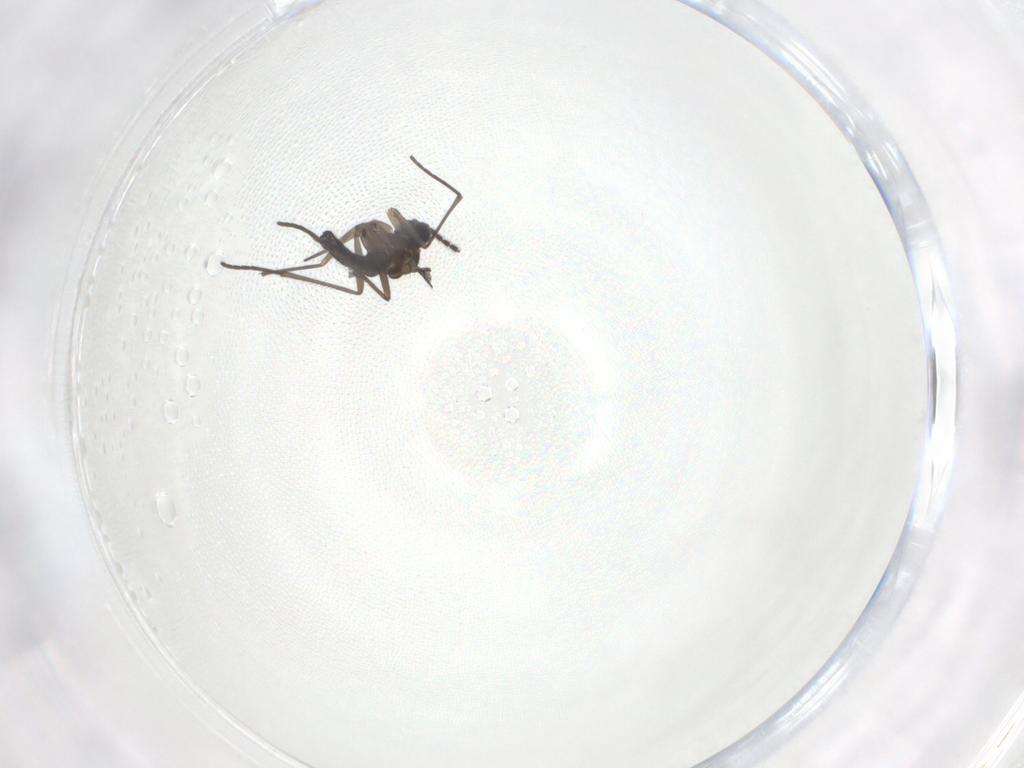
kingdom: Animalia
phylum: Arthropoda
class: Insecta
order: Diptera
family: Sciaridae
